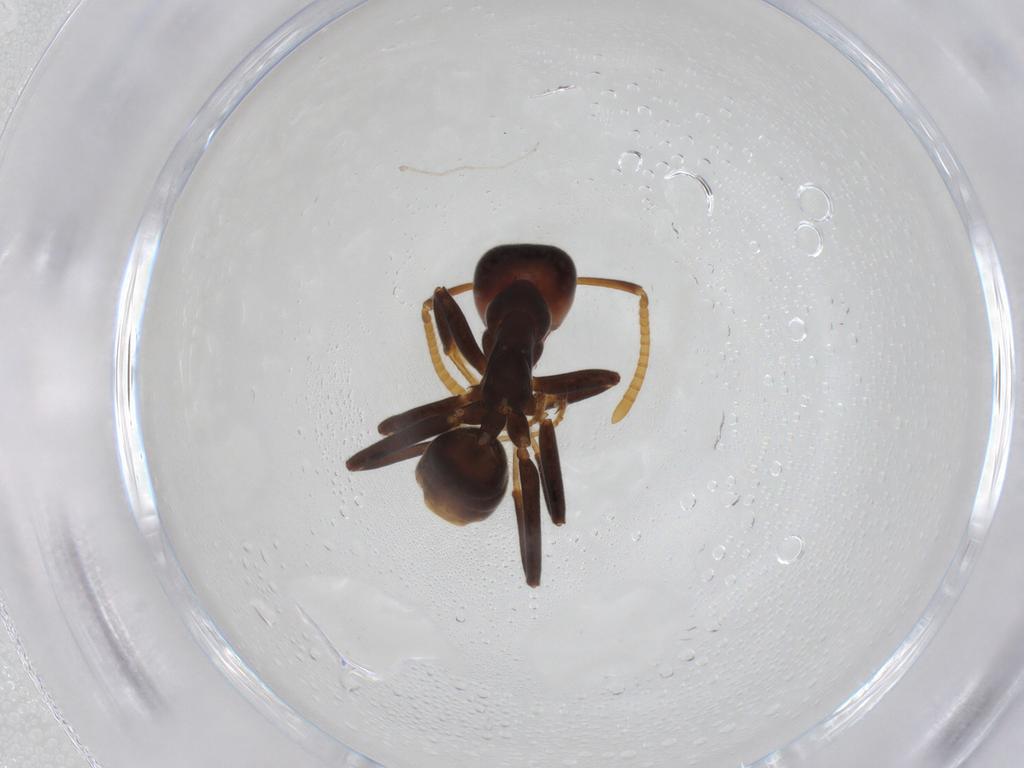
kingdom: Animalia
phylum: Arthropoda
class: Insecta
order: Hymenoptera
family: Formicidae
